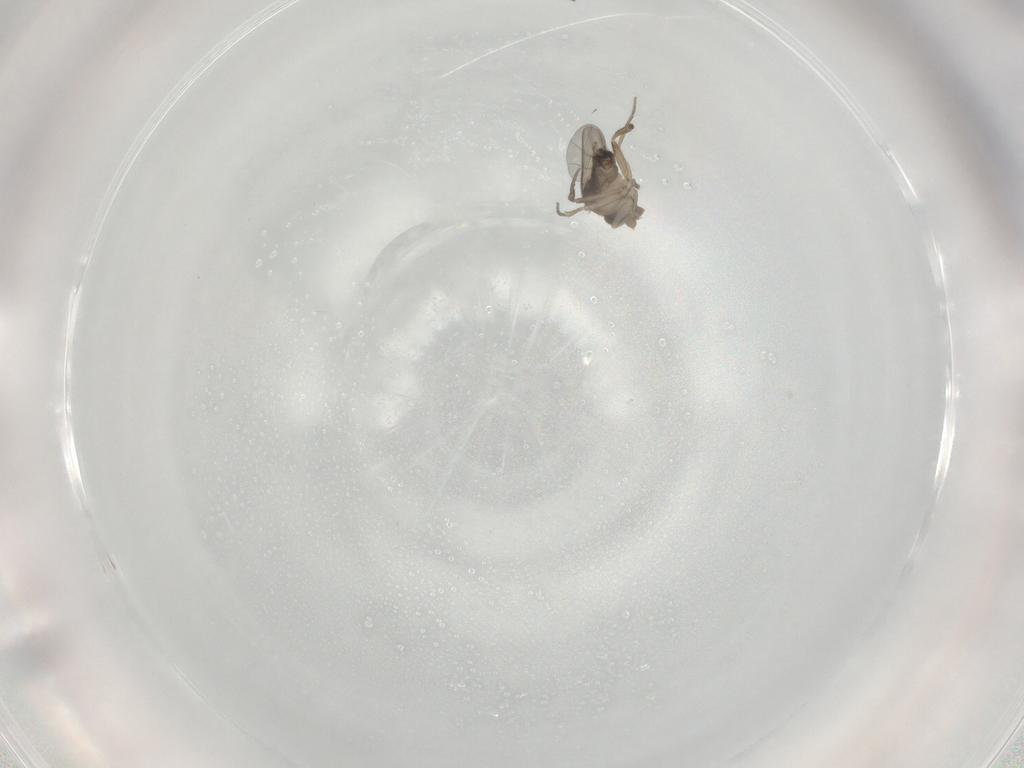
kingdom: Animalia
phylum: Arthropoda
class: Insecta
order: Diptera
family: Phoridae
